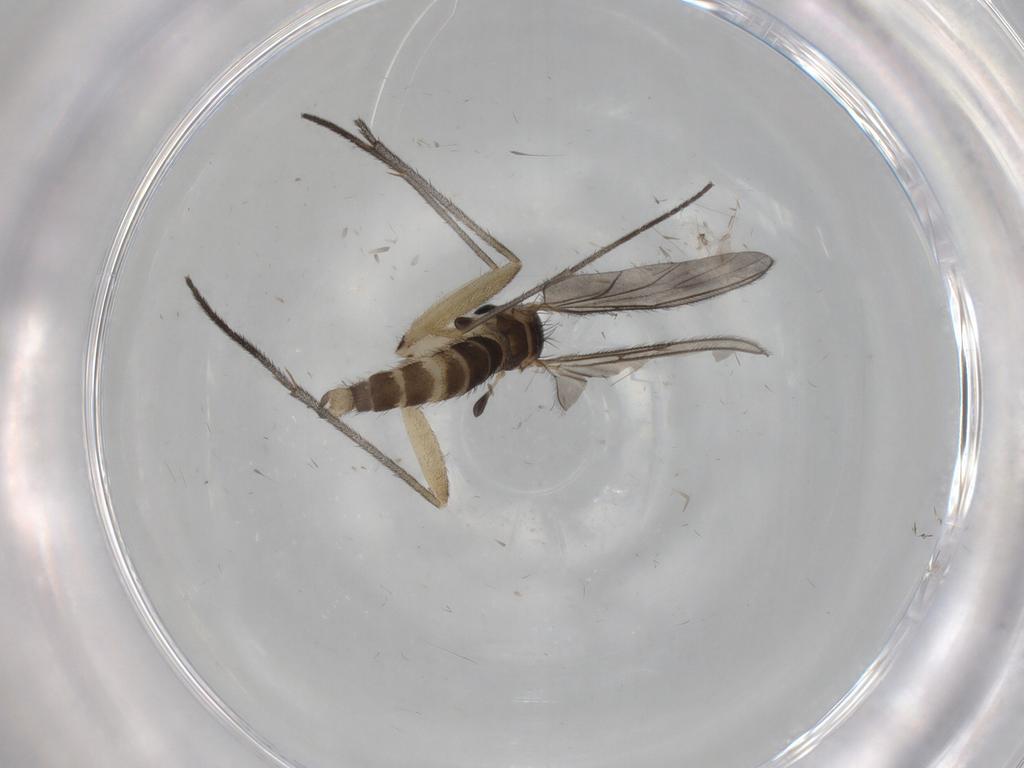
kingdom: Animalia
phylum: Arthropoda
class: Insecta
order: Diptera
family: Sciaridae
